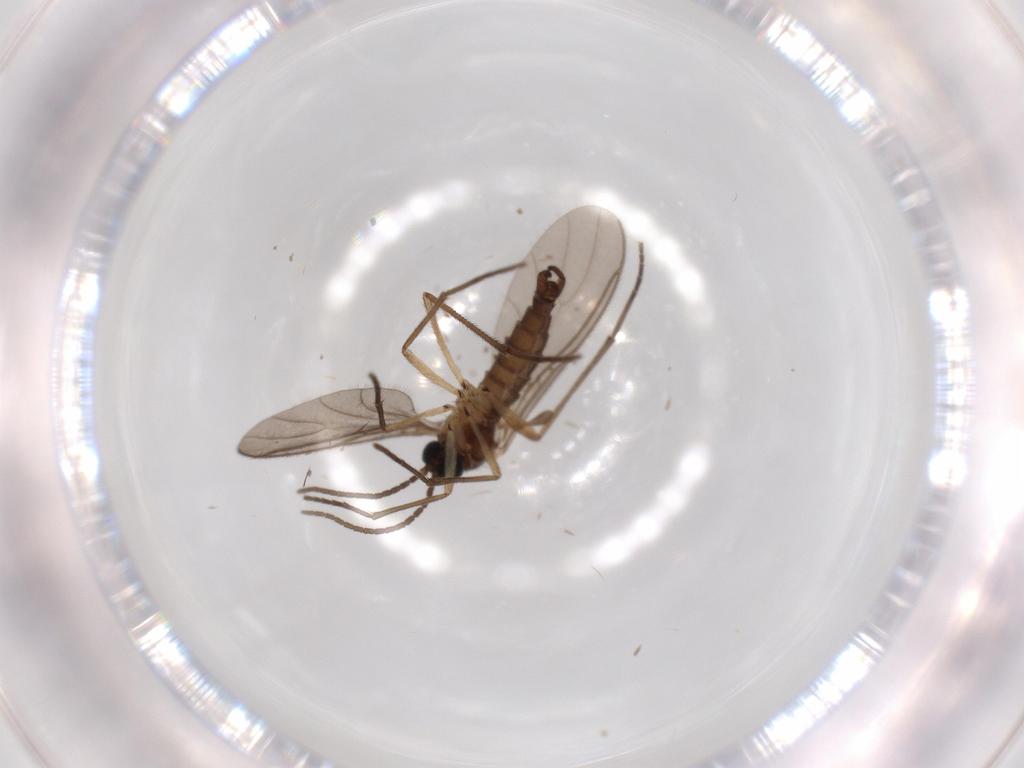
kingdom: Animalia
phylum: Arthropoda
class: Insecta
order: Diptera
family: Sciaridae
